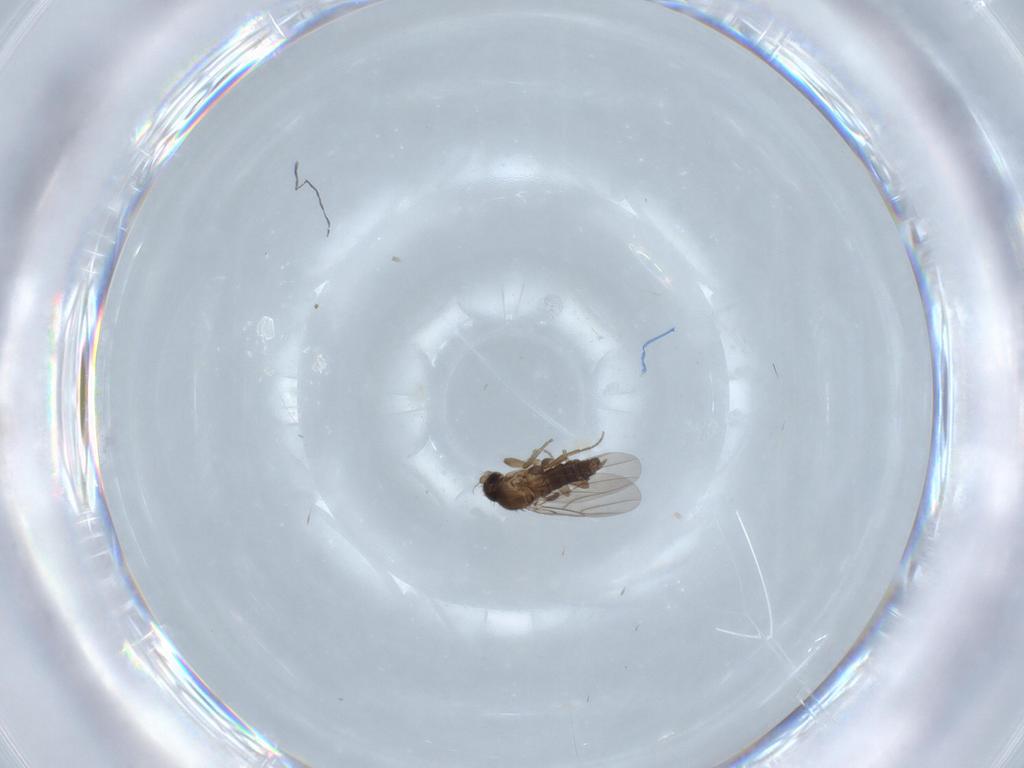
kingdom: Animalia
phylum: Arthropoda
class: Insecta
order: Diptera
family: Phoridae
